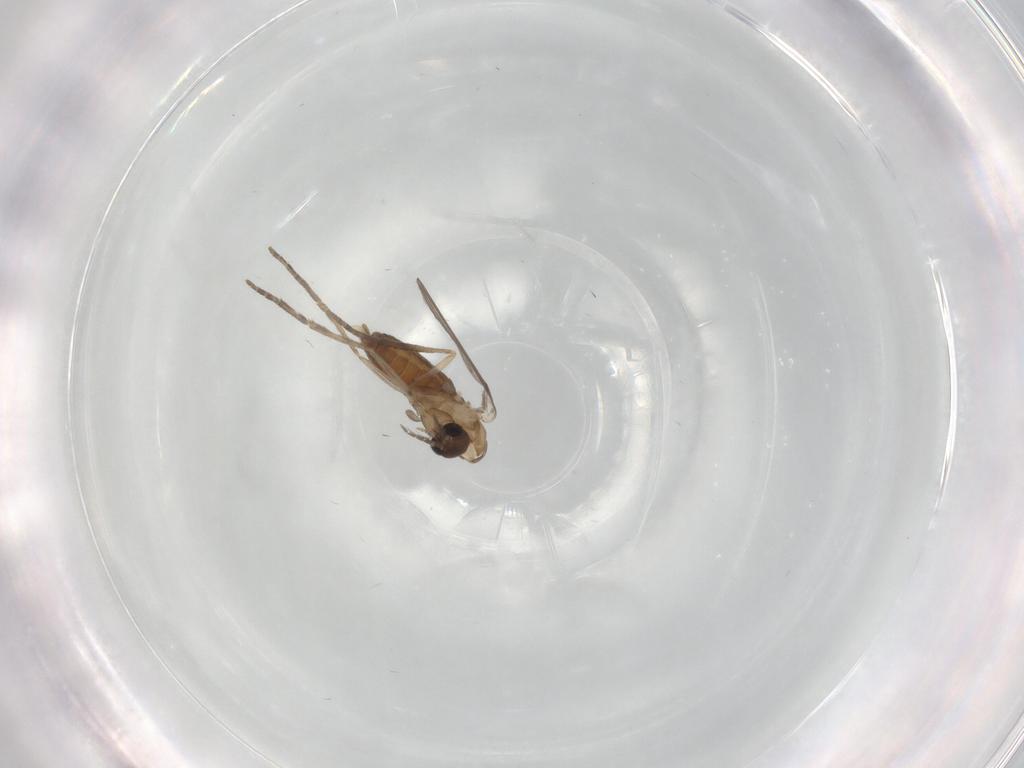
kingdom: Animalia
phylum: Arthropoda
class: Insecta
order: Diptera
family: Psychodidae
